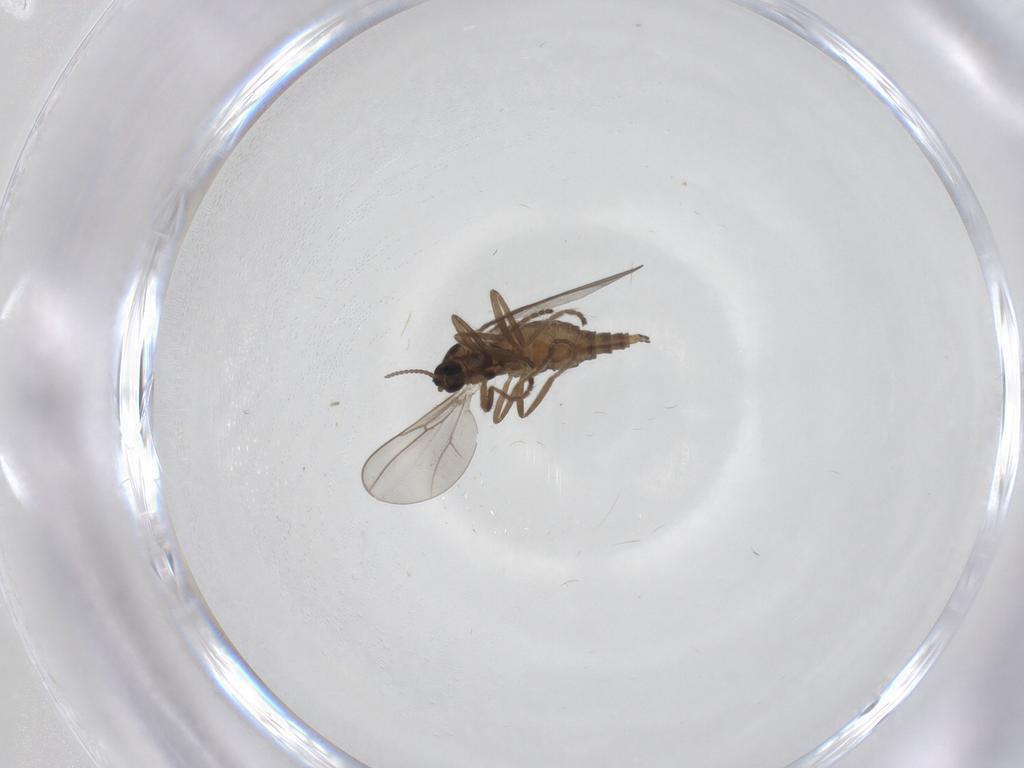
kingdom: Animalia
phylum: Arthropoda
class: Insecta
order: Diptera
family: Cecidomyiidae
